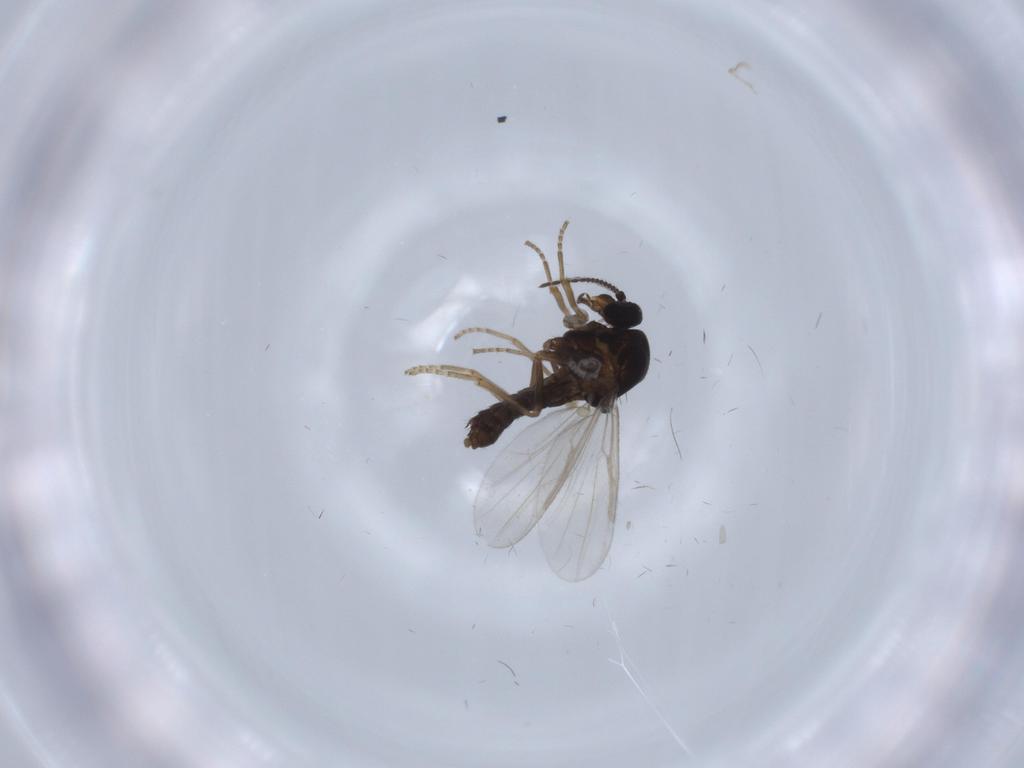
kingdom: Animalia
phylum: Arthropoda
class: Insecta
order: Diptera
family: Ceratopogonidae
